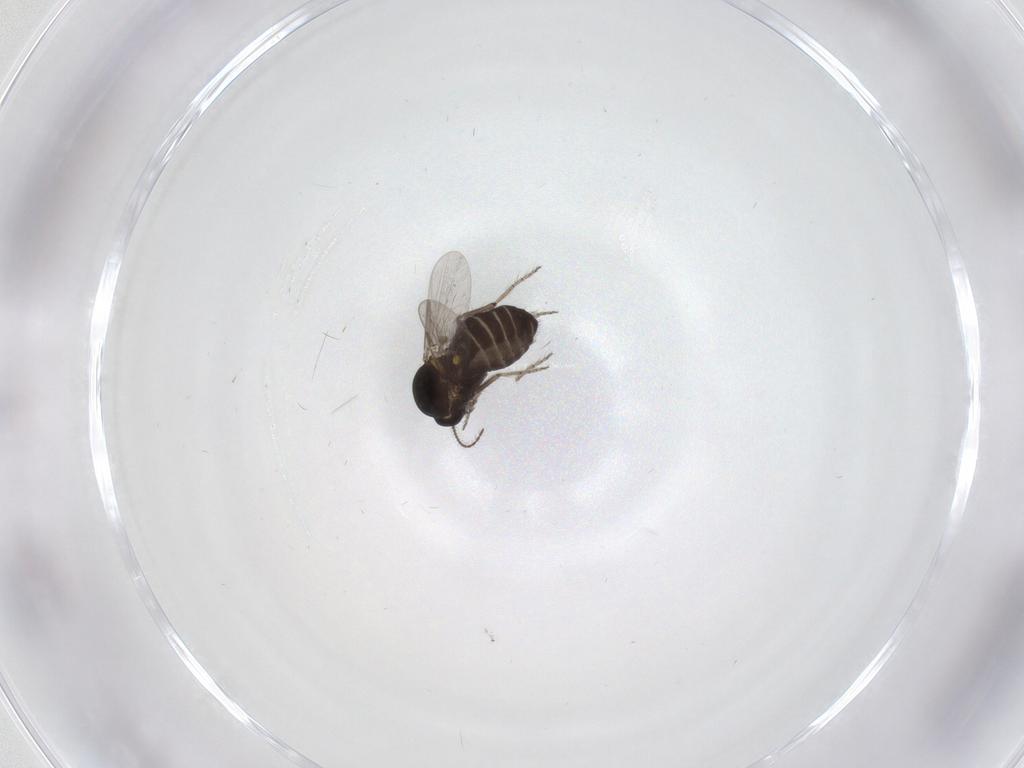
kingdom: Animalia
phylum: Arthropoda
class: Insecta
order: Diptera
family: Ceratopogonidae
